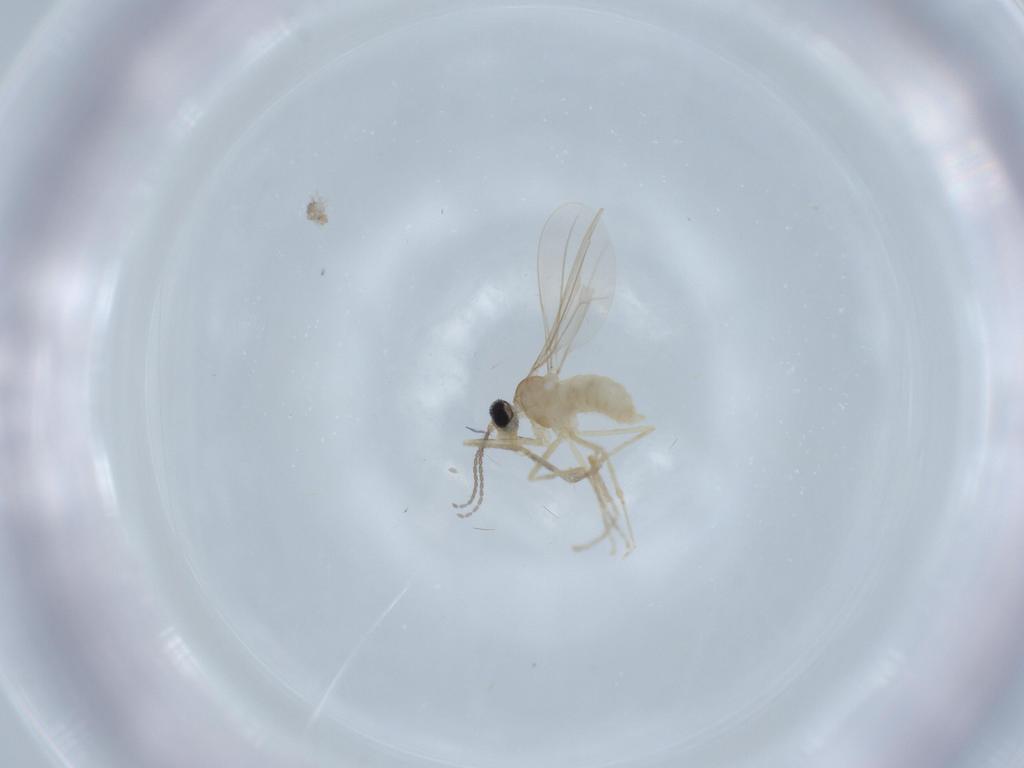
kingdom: Animalia
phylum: Arthropoda
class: Insecta
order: Diptera
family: Cecidomyiidae
